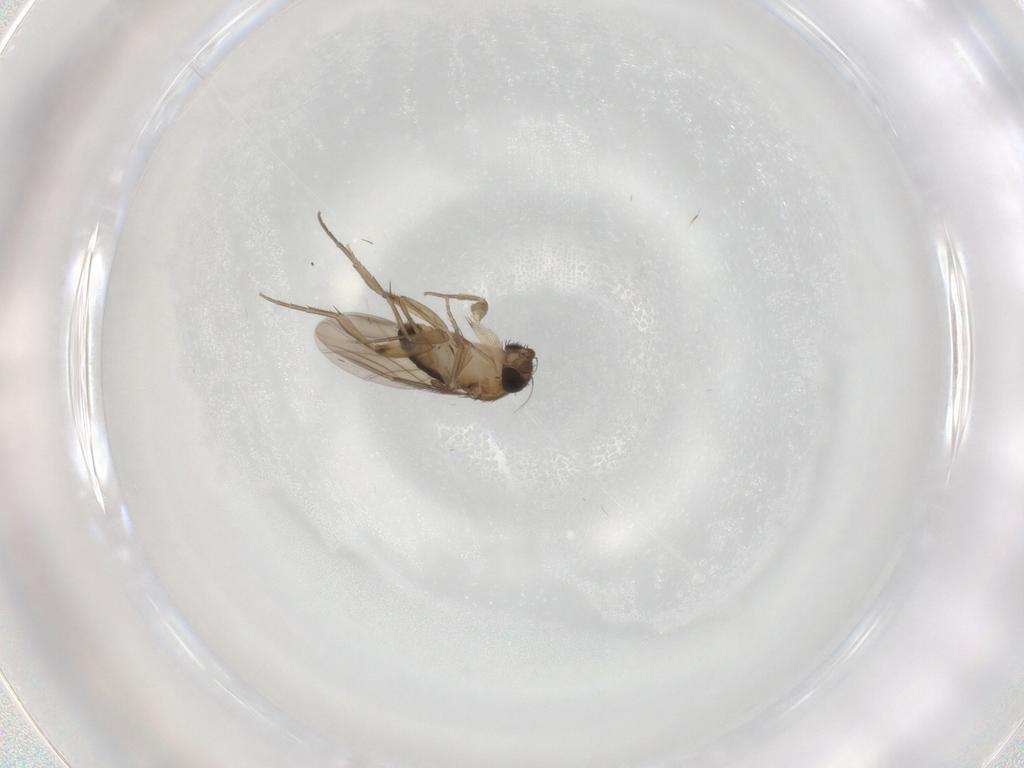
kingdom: Animalia
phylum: Arthropoda
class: Insecta
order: Diptera
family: Phoridae
